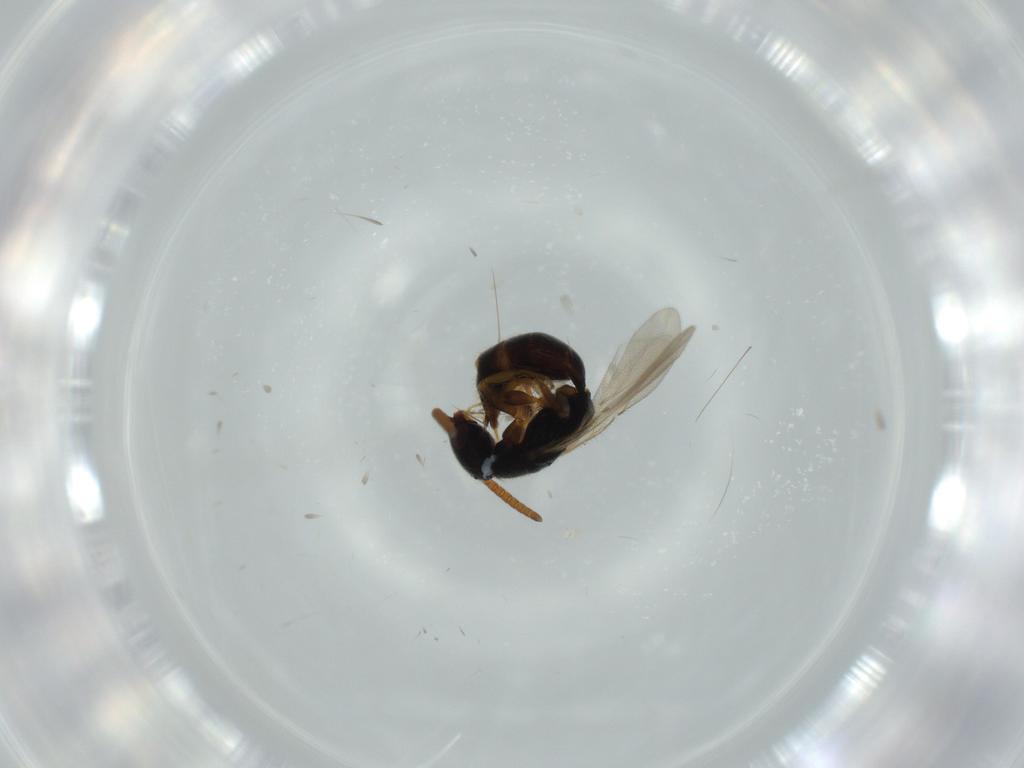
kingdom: Animalia
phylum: Arthropoda
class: Insecta
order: Hymenoptera
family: Bethylidae
